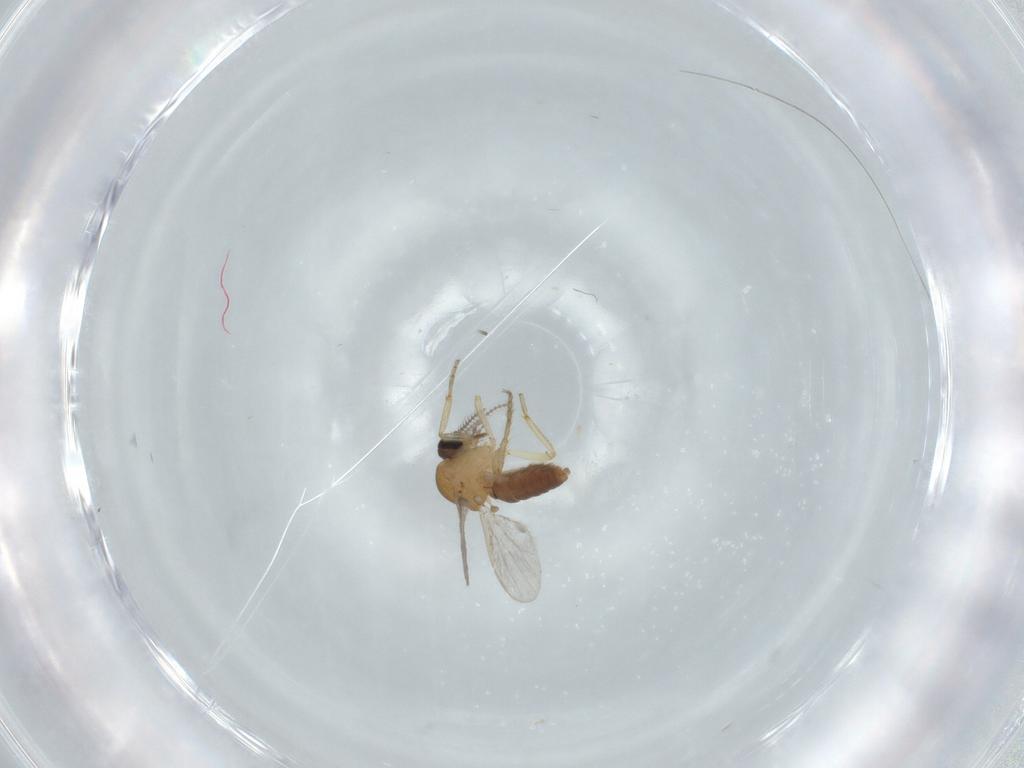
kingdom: Animalia
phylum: Arthropoda
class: Insecta
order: Diptera
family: Ceratopogonidae
